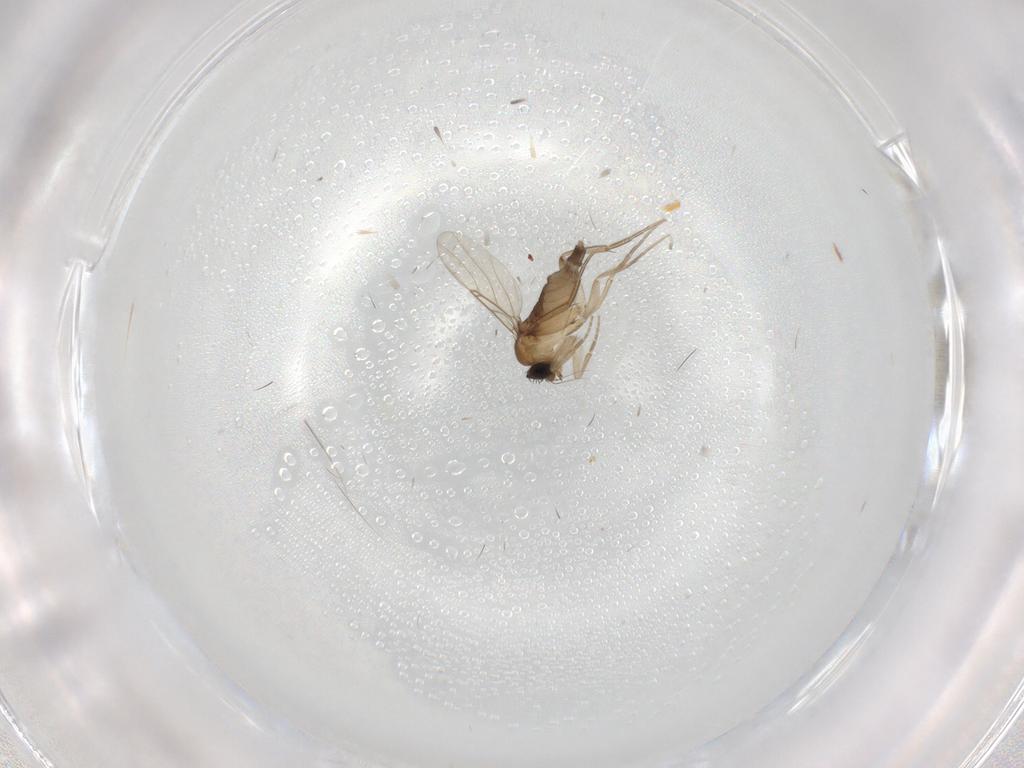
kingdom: Animalia
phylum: Arthropoda
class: Insecta
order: Diptera
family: Phoridae
